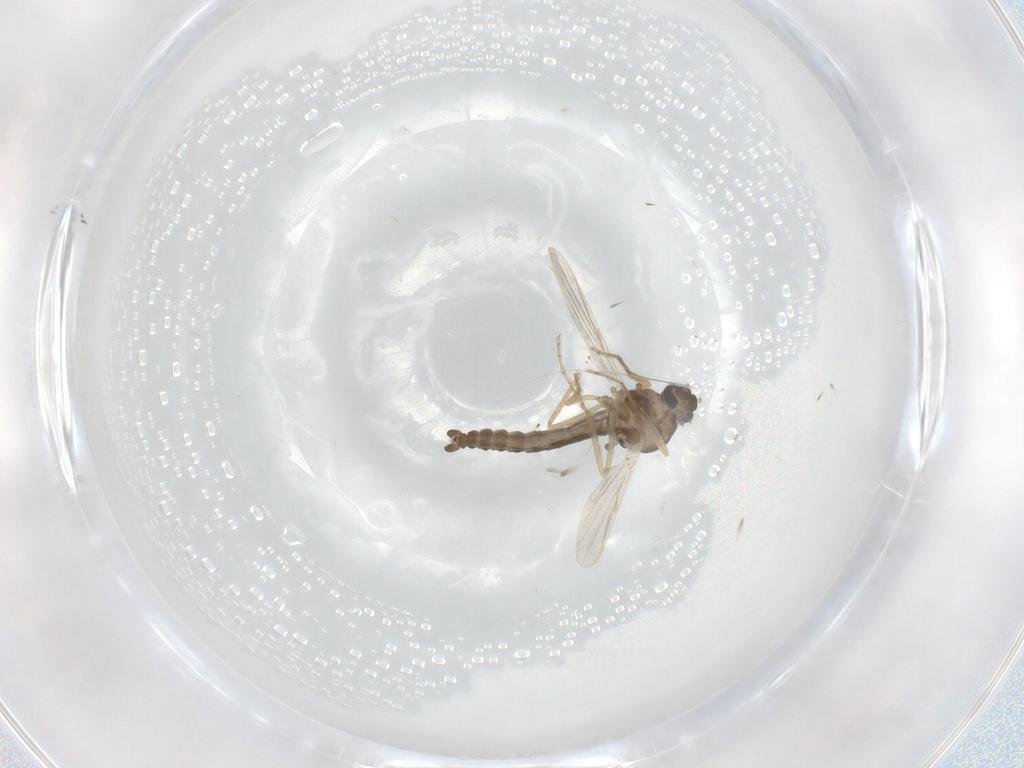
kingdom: Animalia
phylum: Arthropoda
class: Insecta
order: Diptera
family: Ceratopogonidae
